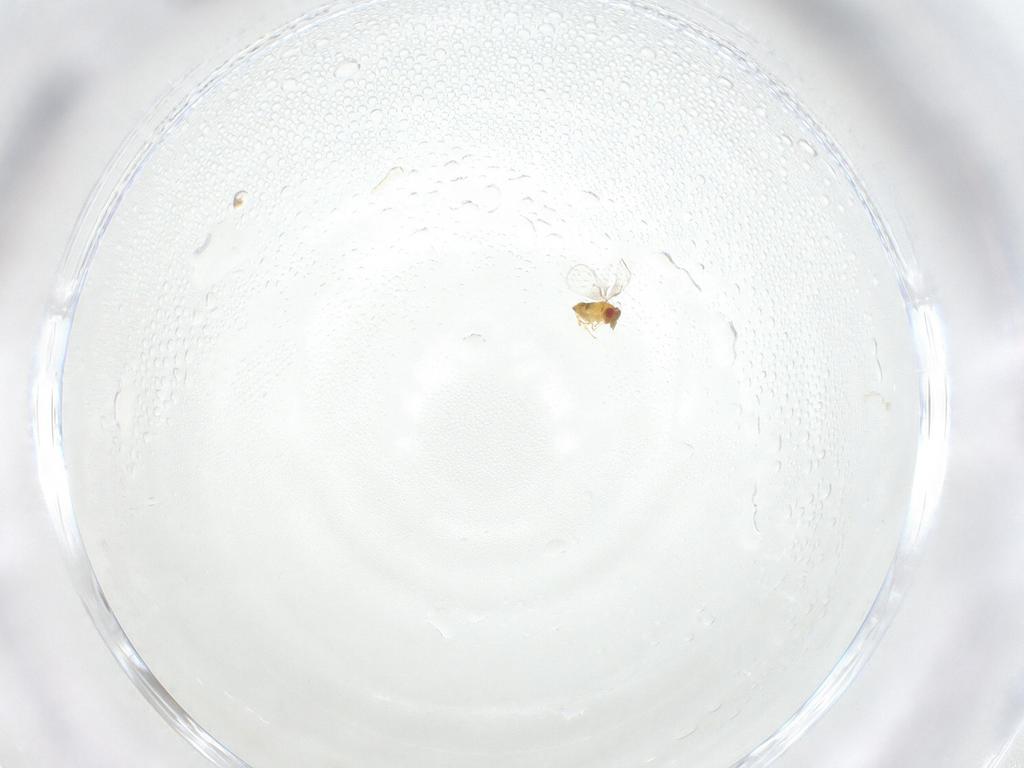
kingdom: Animalia
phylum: Arthropoda
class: Insecta
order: Hymenoptera
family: Trichogrammatidae
